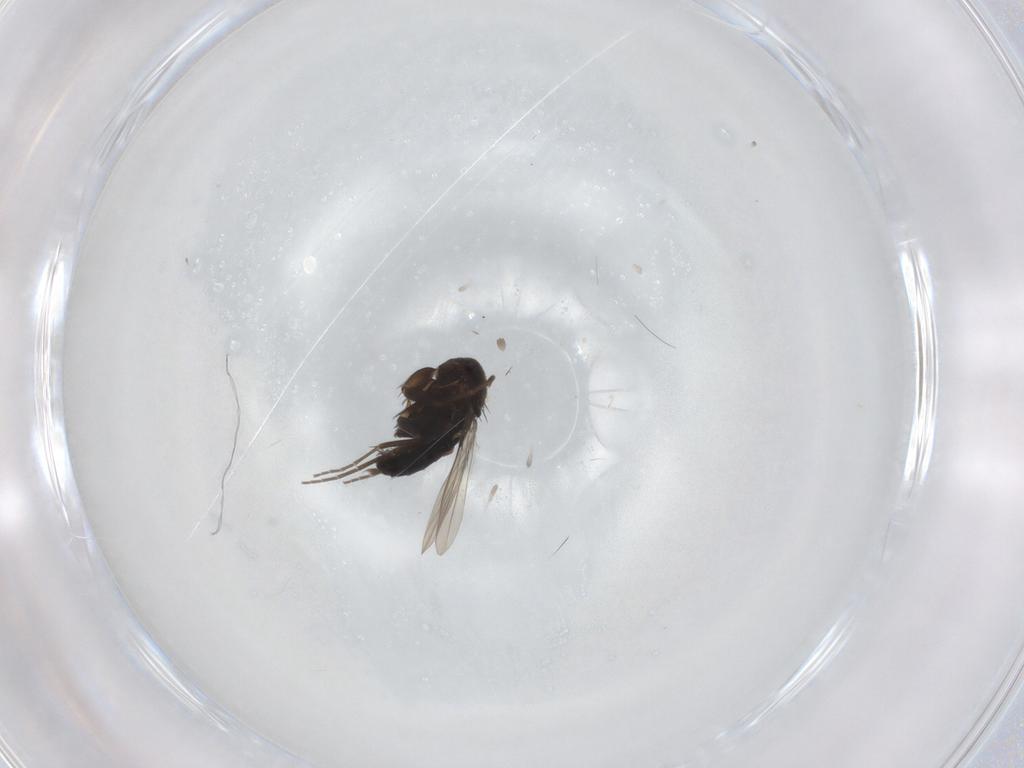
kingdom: Animalia
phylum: Arthropoda
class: Insecta
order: Diptera
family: Phoridae
